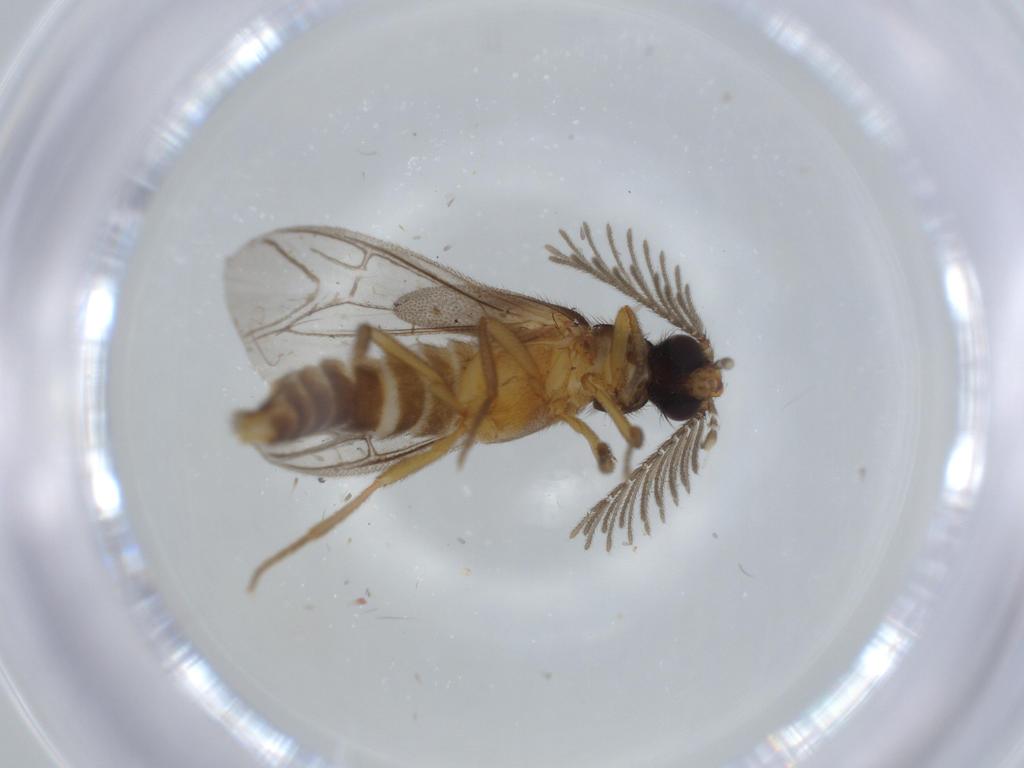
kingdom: Animalia
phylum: Arthropoda
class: Insecta
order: Coleoptera
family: Chrysomelidae
